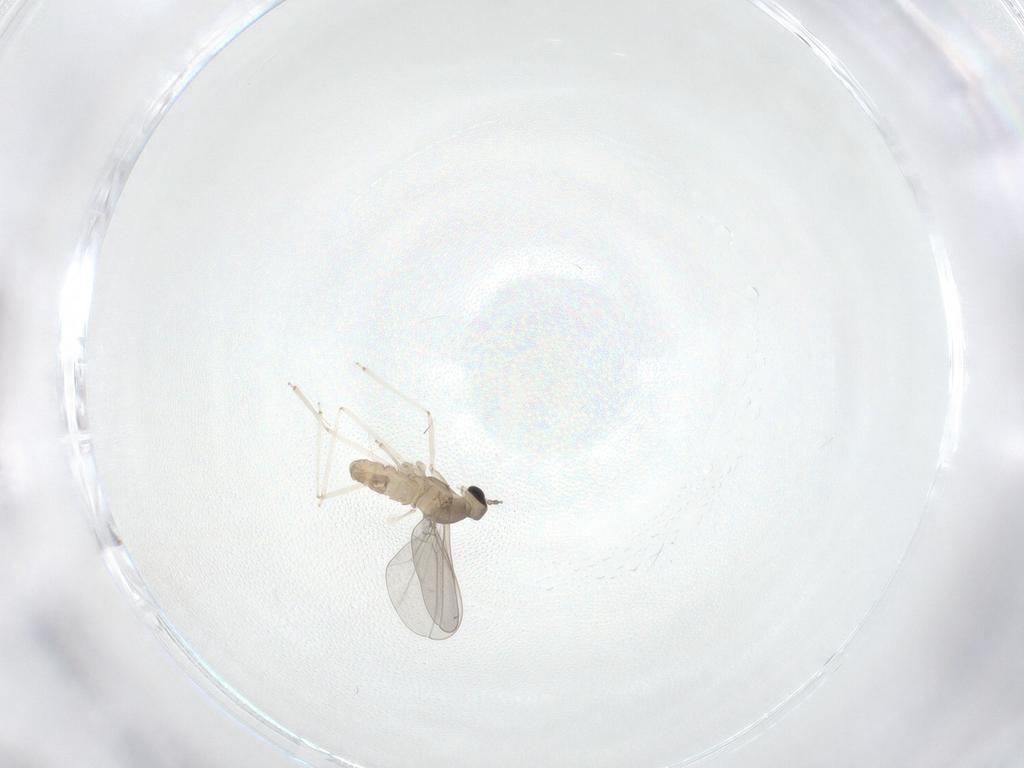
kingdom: Animalia
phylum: Arthropoda
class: Insecta
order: Diptera
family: Cecidomyiidae
